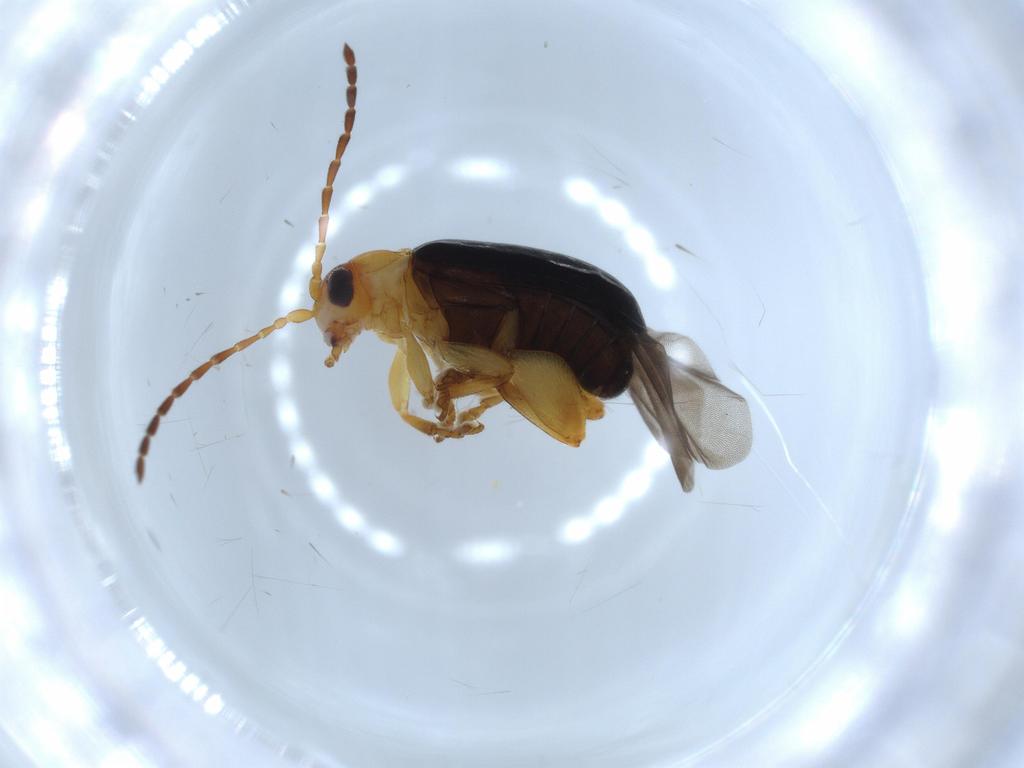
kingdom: Animalia
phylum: Arthropoda
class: Insecta
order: Coleoptera
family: Chrysomelidae
